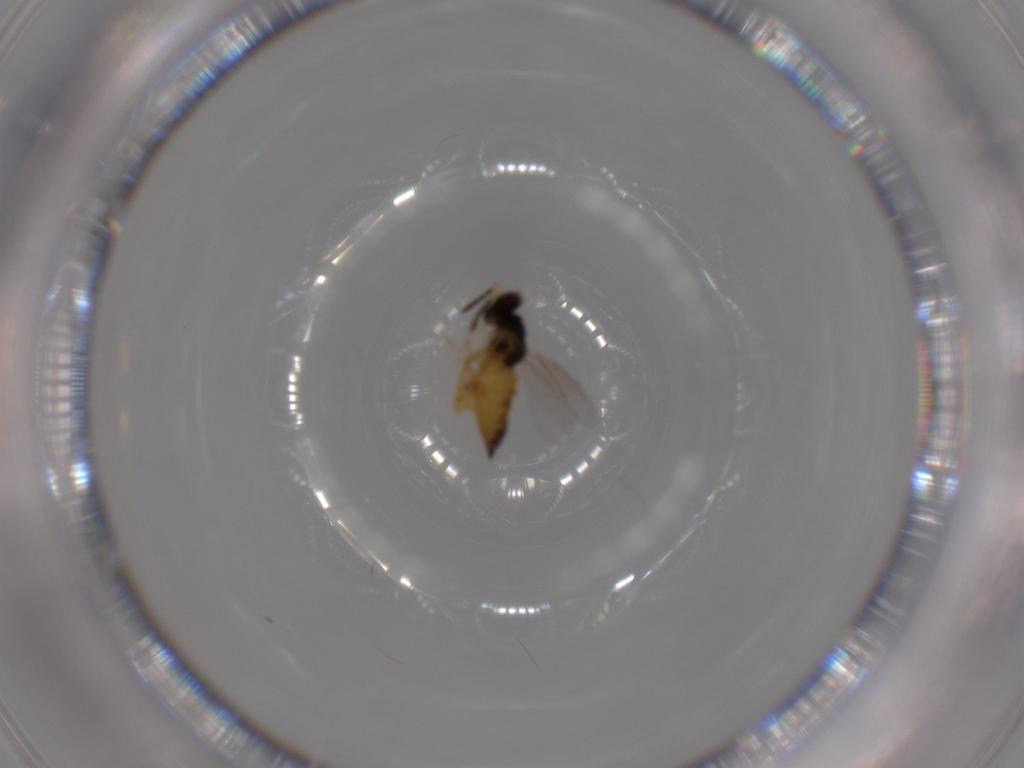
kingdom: Animalia
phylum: Arthropoda
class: Insecta
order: Hymenoptera
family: Eulophidae
